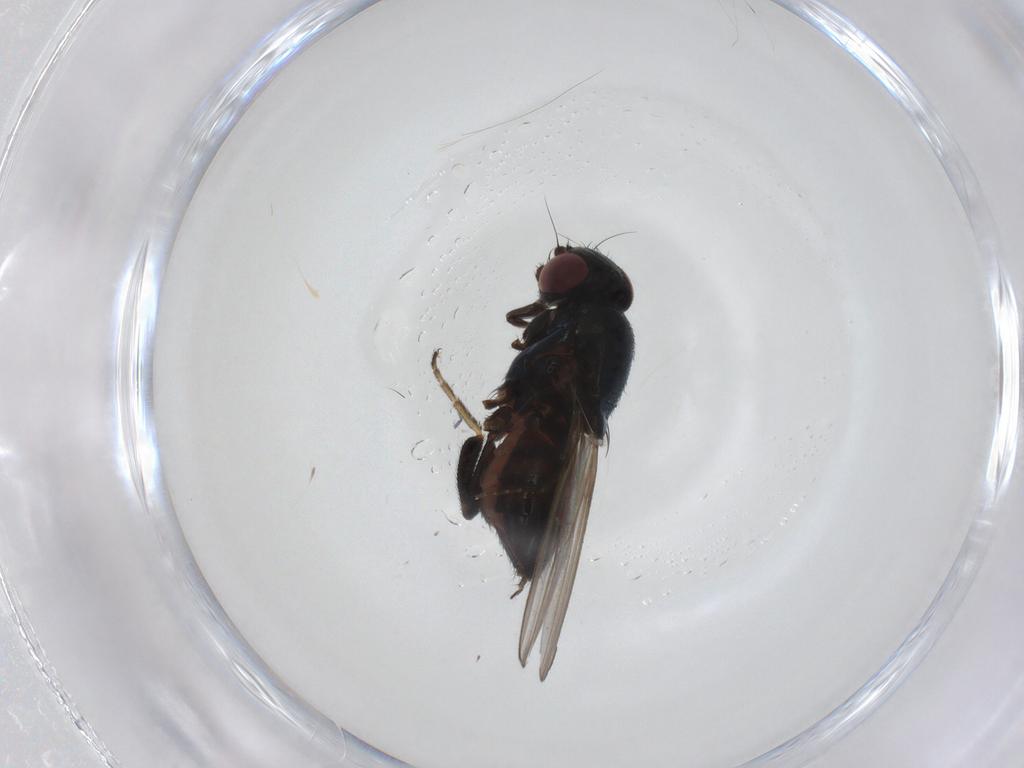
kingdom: Animalia
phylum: Arthropoda
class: Insecta
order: Diptera
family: Chloropidae
